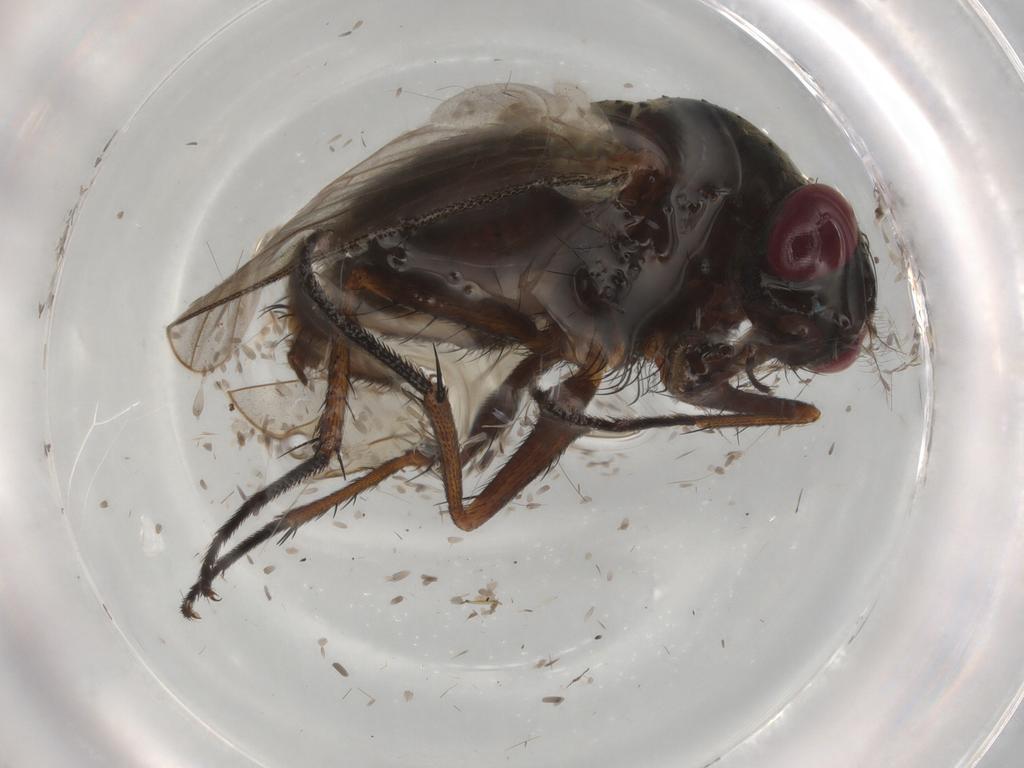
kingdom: Animalia
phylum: Arthropoda
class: Insecta
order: Diptera
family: Muscidae
